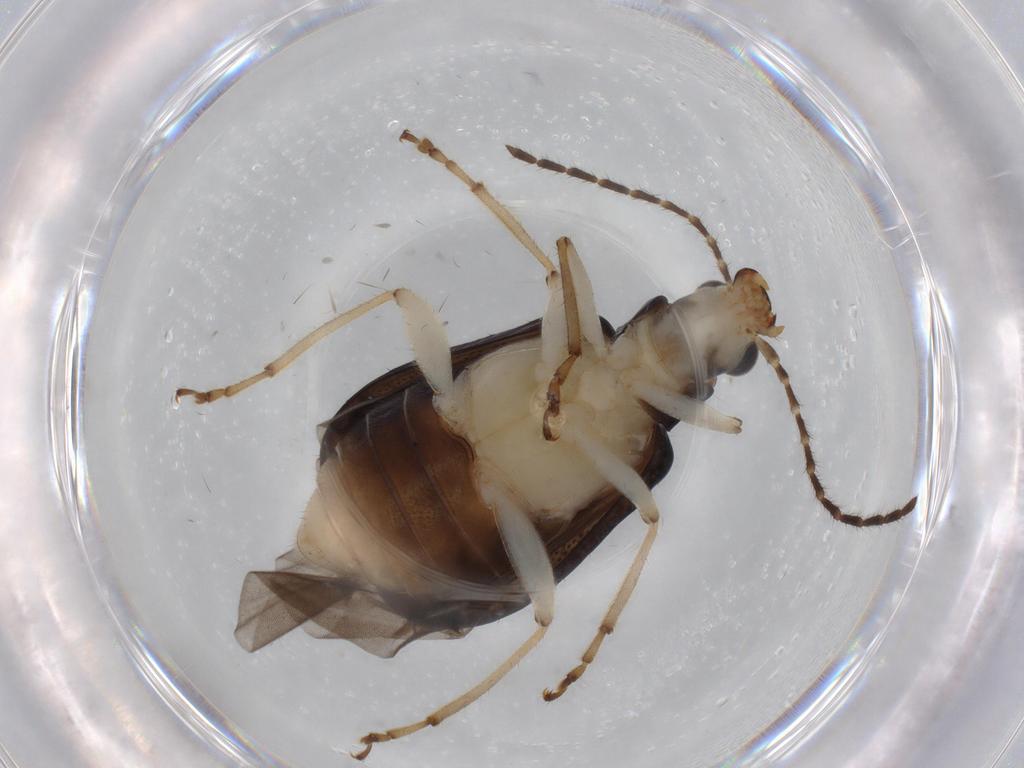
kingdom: Animalia
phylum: Arthropoda
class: Insecta
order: Coleoptera
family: Chrysomelidae
